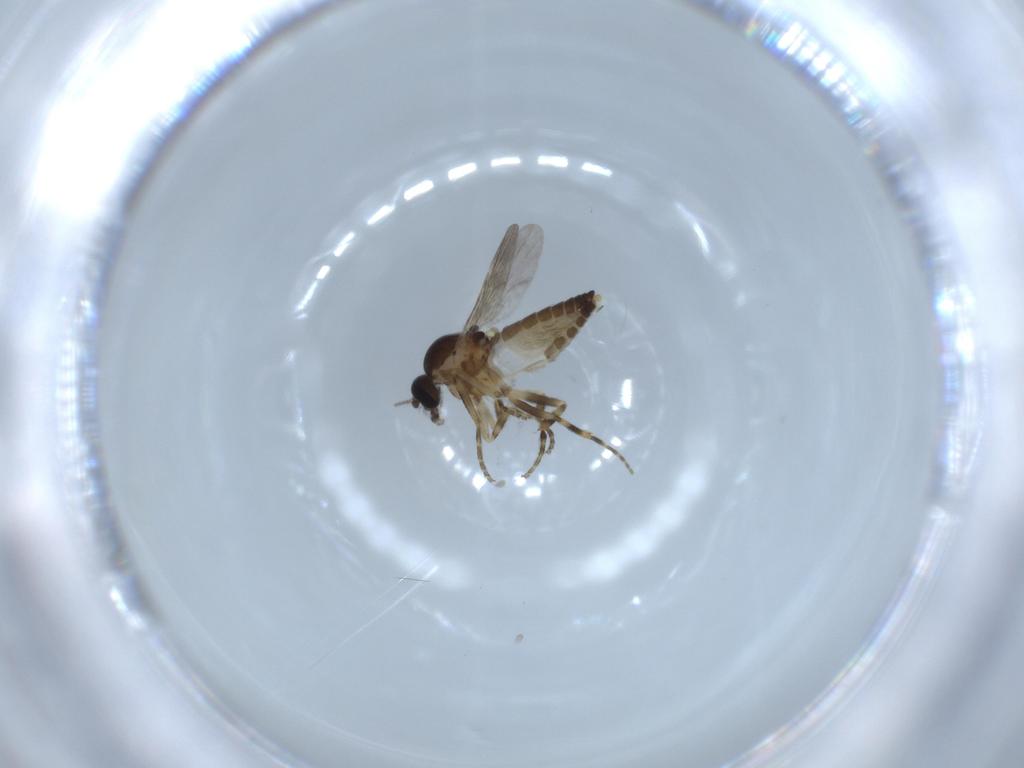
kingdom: Animalia
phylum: Arthropoda
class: Insecta
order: Diptera
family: Ceratopogonidae
